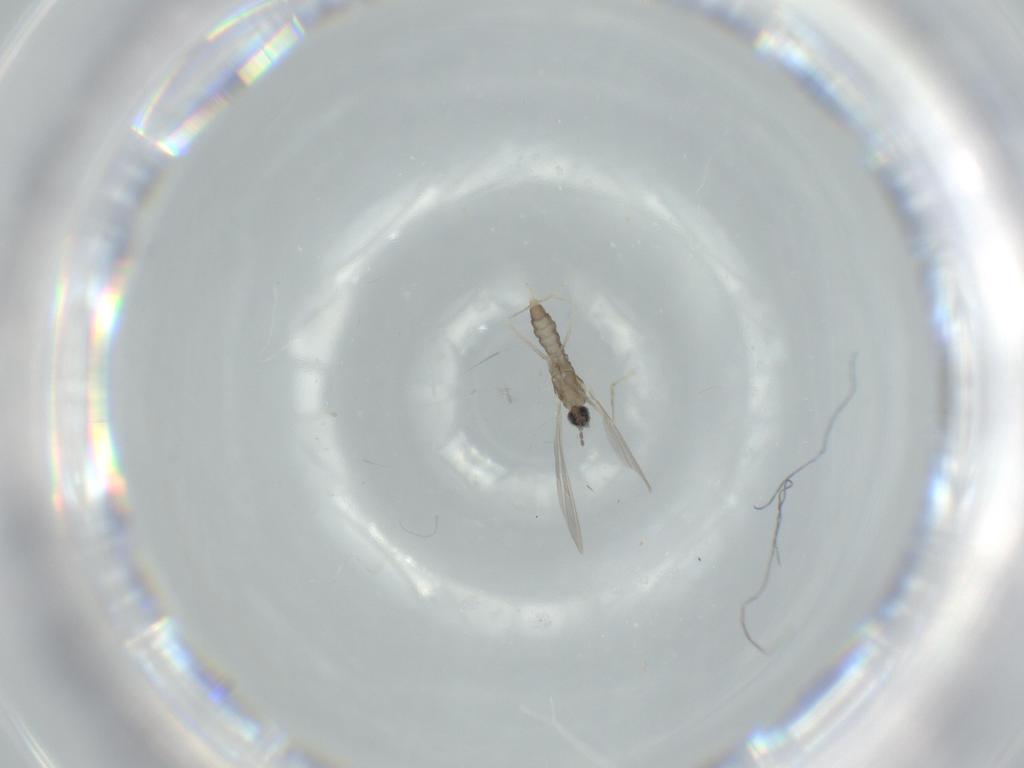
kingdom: Animalia
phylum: Arthropoda
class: Insecta
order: Diptera
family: Cecidomyiidae
